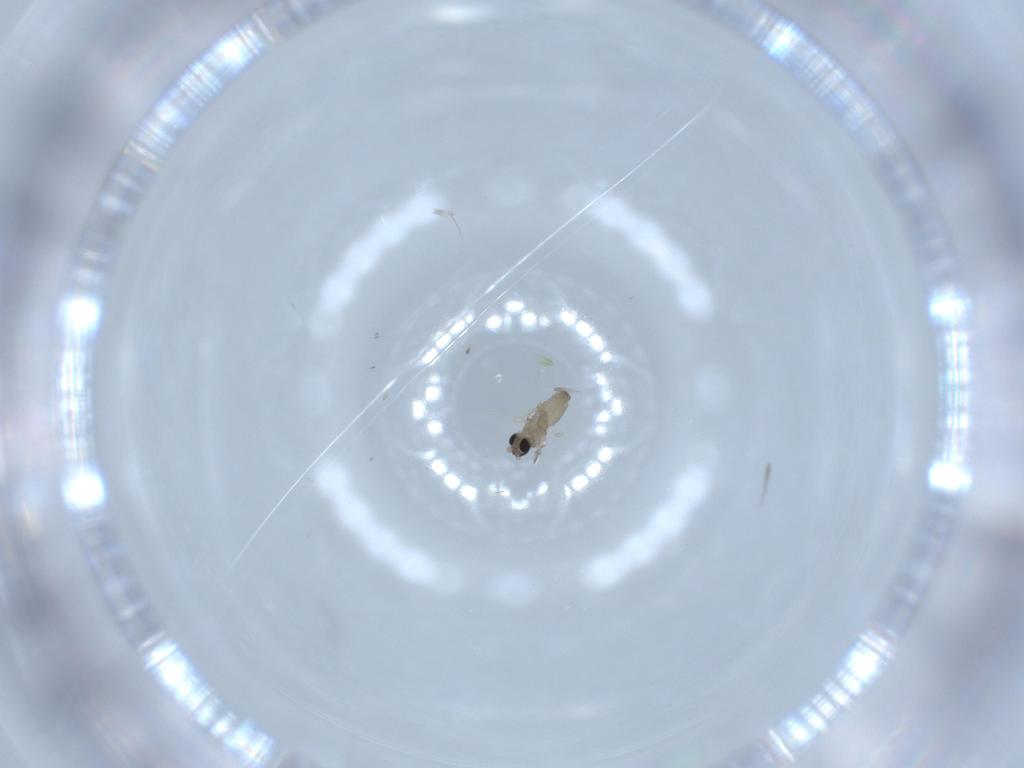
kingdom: Animalia
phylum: Arthropoda
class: Insecta
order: Diptera
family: Cecidomyiidae
